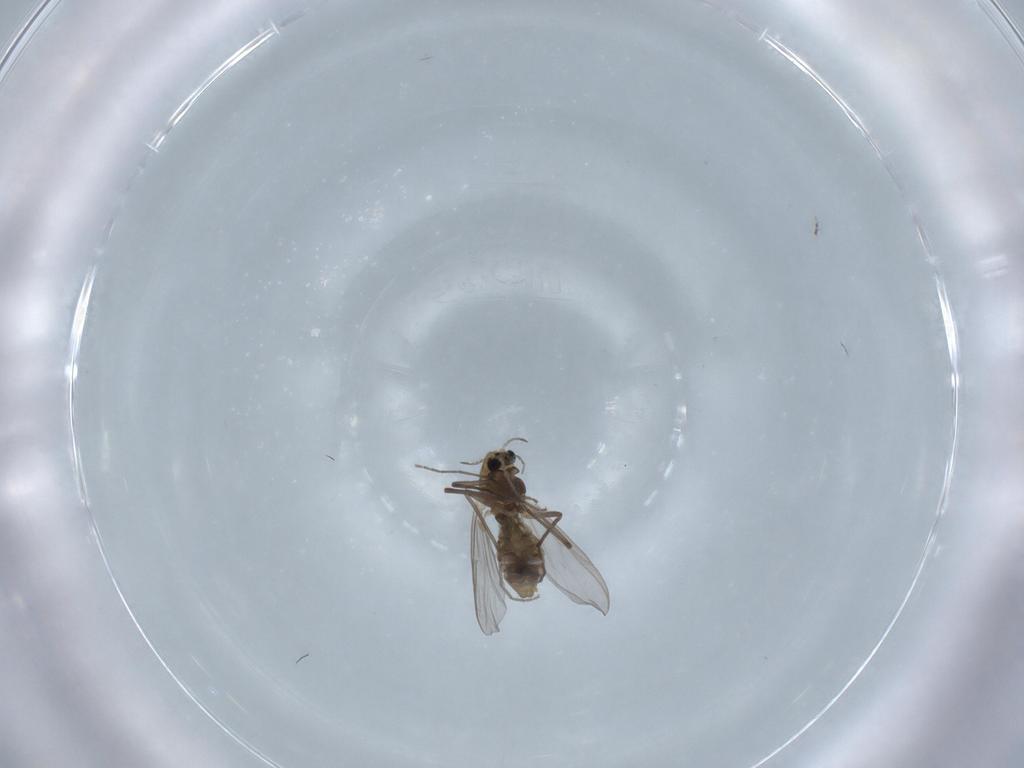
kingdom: Animalia
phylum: Arthropoda
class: Insecta
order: Diptera
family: Chironomidae
